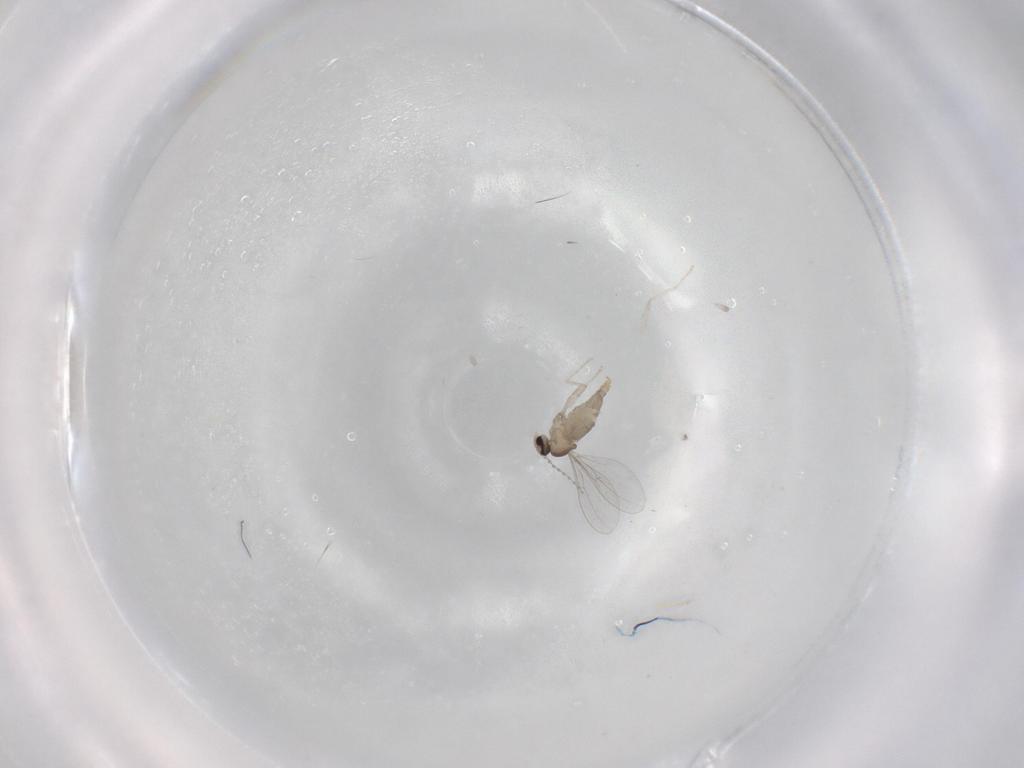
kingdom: Animalia
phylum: Arthropoda
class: Insecta
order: Diptera
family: Cecidomyiidae
